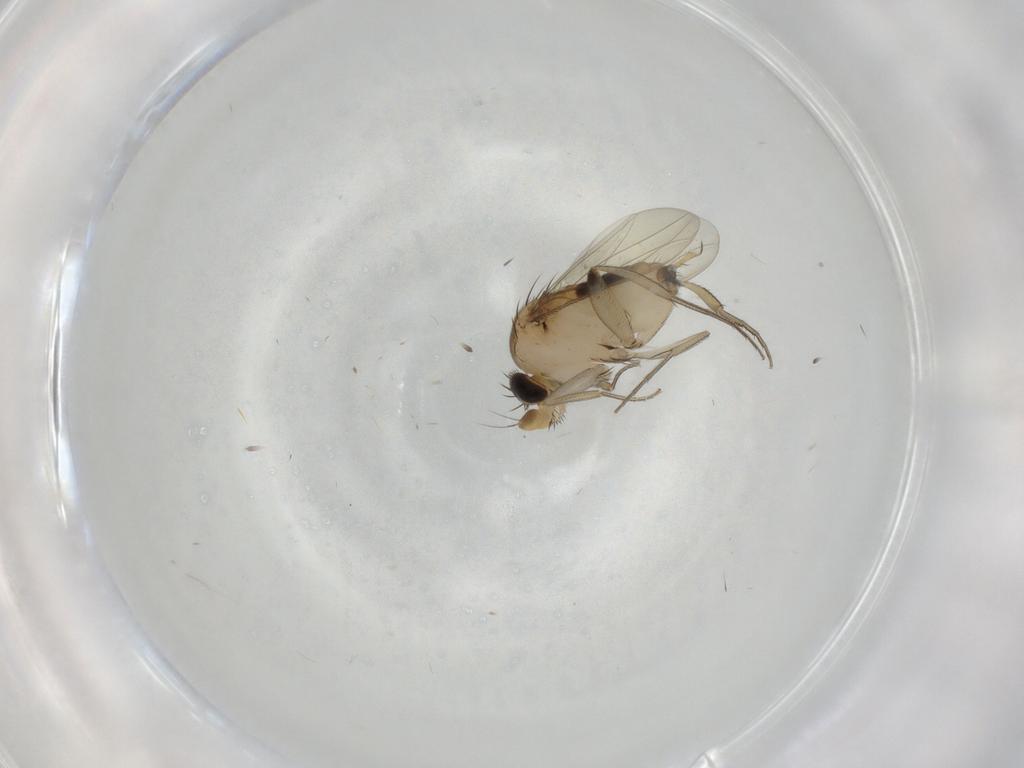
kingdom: Animalia
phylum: Arthropoda
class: Insecta
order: Diptera
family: Phoridae
